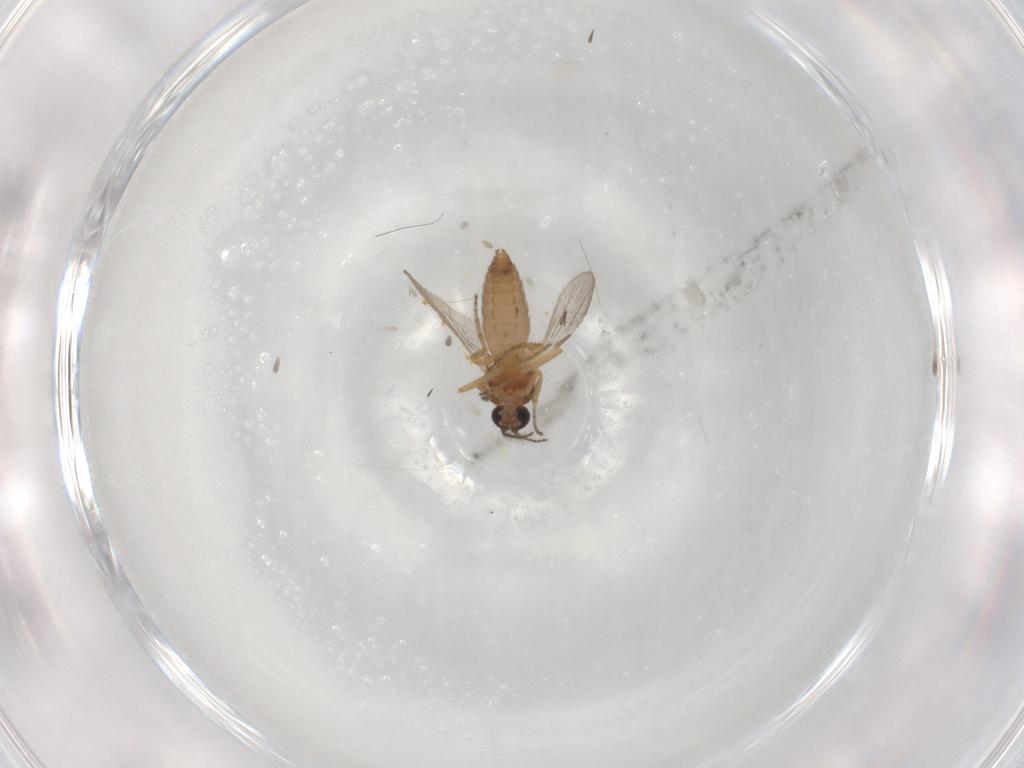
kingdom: Animalia
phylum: Arthropoda
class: Insecta
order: Diptera
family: Ceratopogonidae
